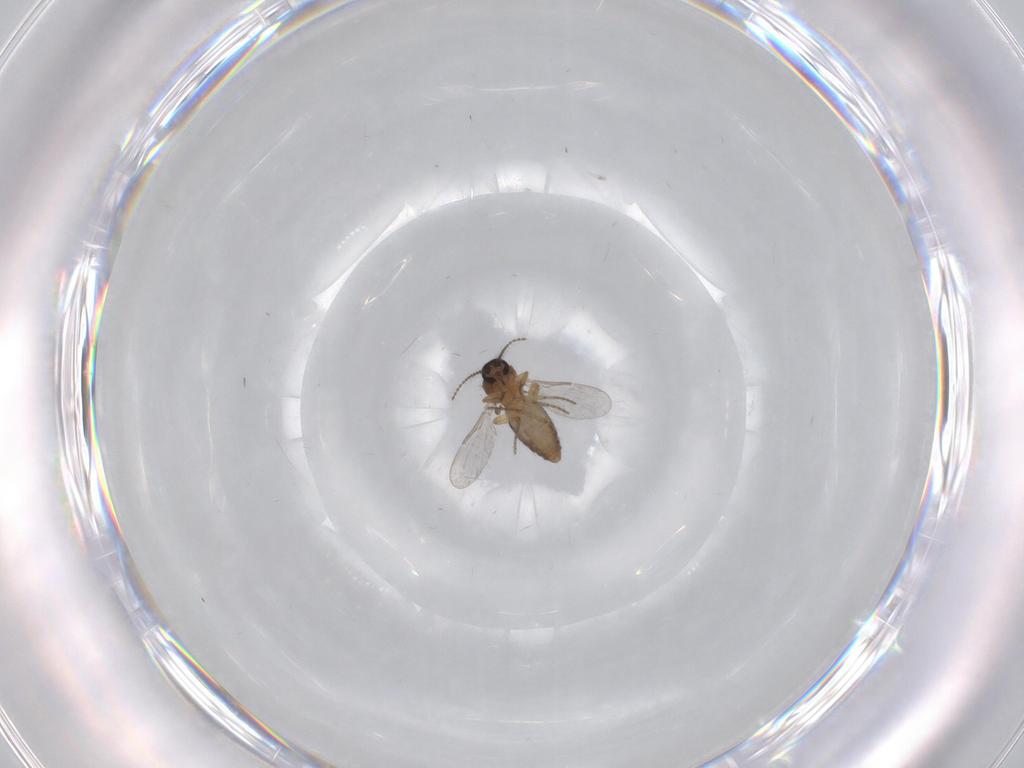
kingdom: Animalia
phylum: Arthropoda
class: Insecta
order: Diptera
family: Ceratopogonidae
